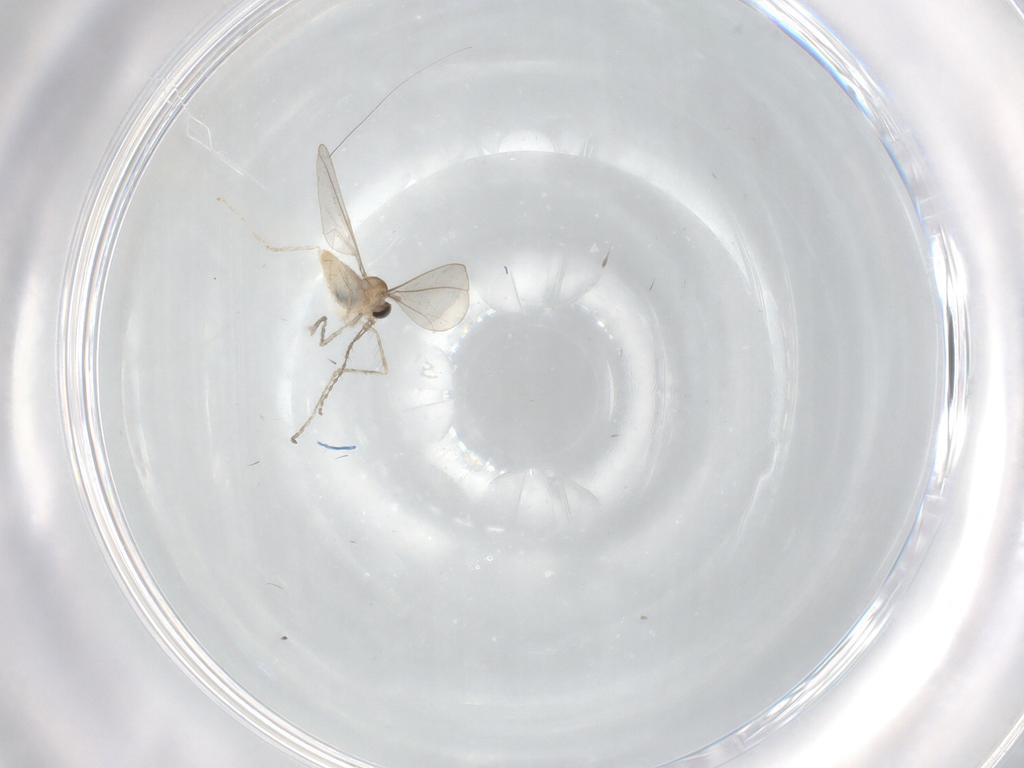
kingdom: Animalia
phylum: Arthropoda
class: Insecta
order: Diptera
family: Cecidomyiidae
